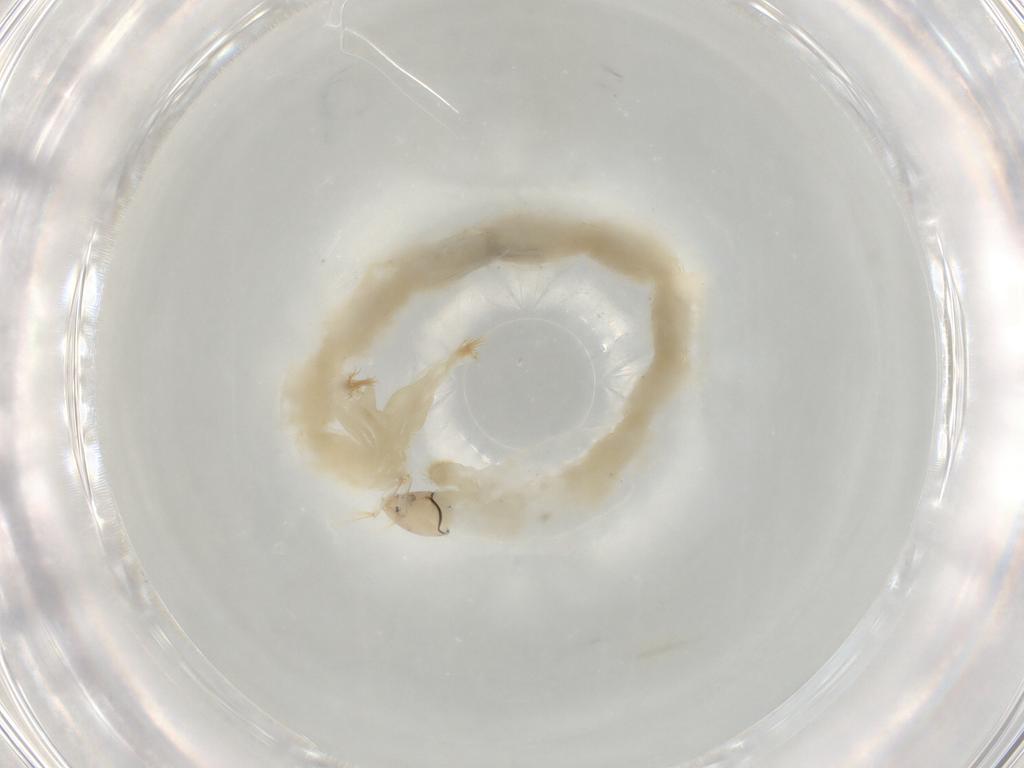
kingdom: Animalia
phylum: Arthropoda
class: Insecta
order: Diptera
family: Chironomidae
